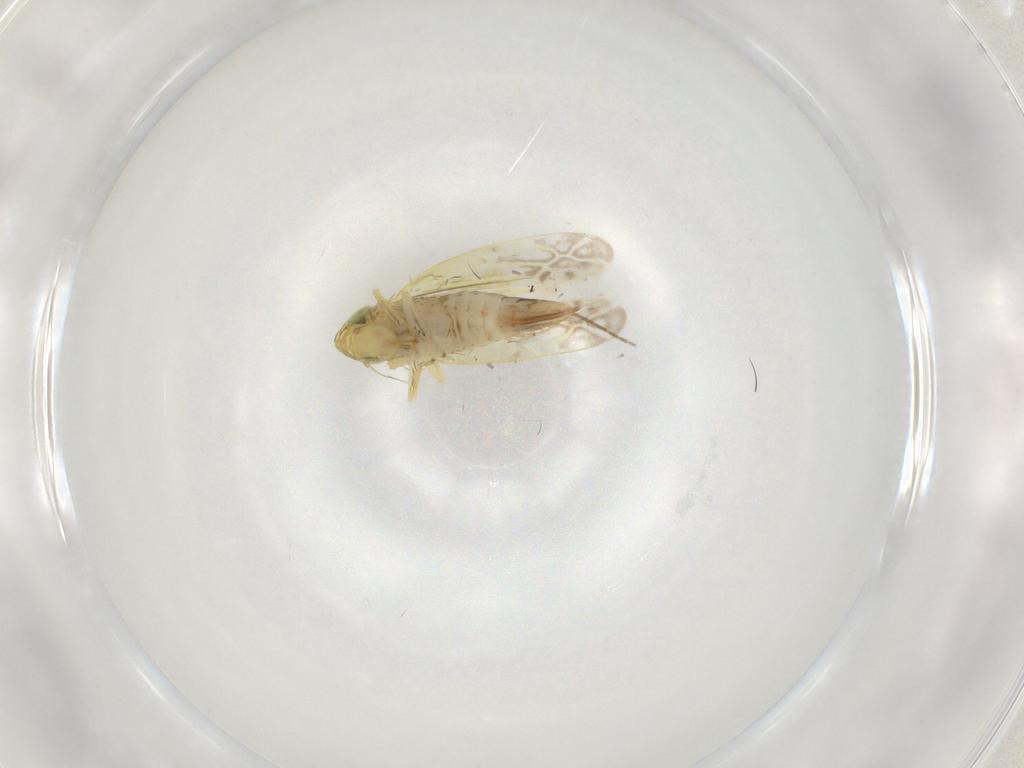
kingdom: Animalia
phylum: Arthropoda
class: Insecta
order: Hemiptera
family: Cicadellidae
